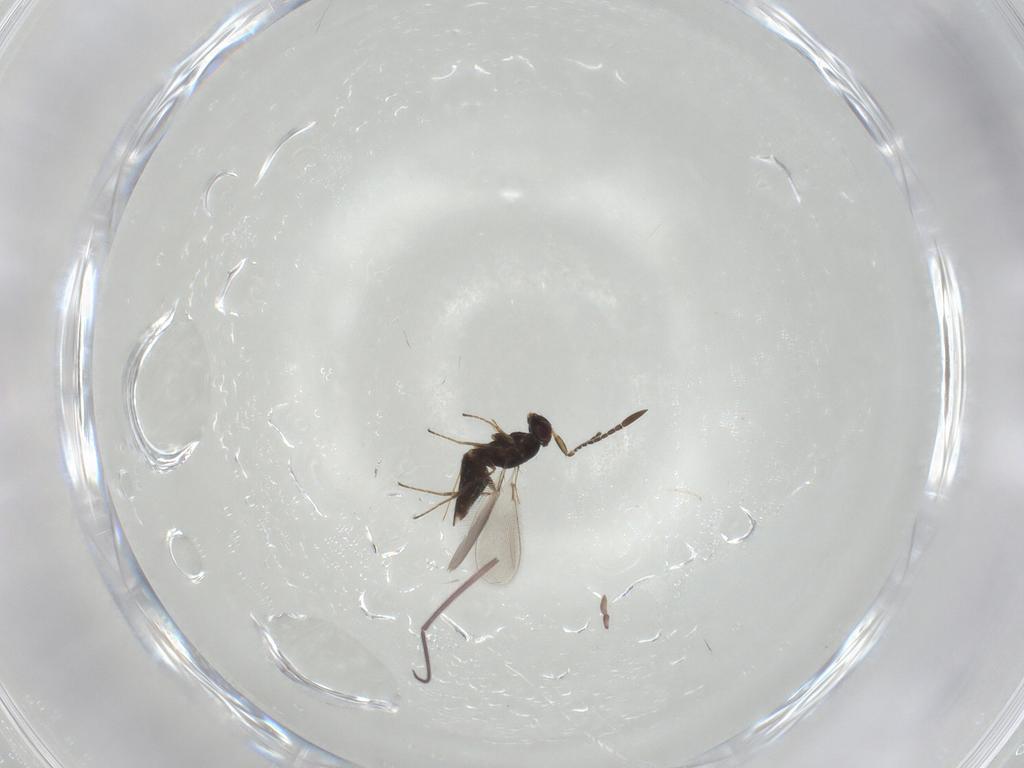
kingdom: Animalia
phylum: Arthropoda
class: Insecta
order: Hymenoptera
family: Mymaridae
